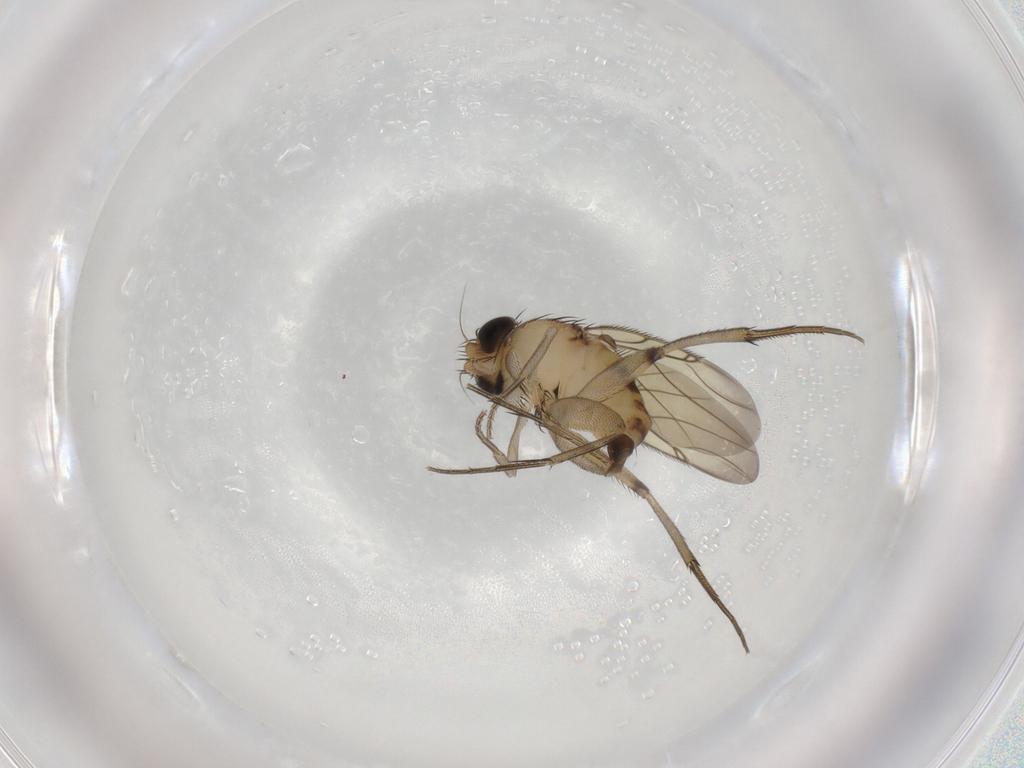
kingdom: Animalia
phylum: Arthropoda
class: Insecta
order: Diptera
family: Phoridae
